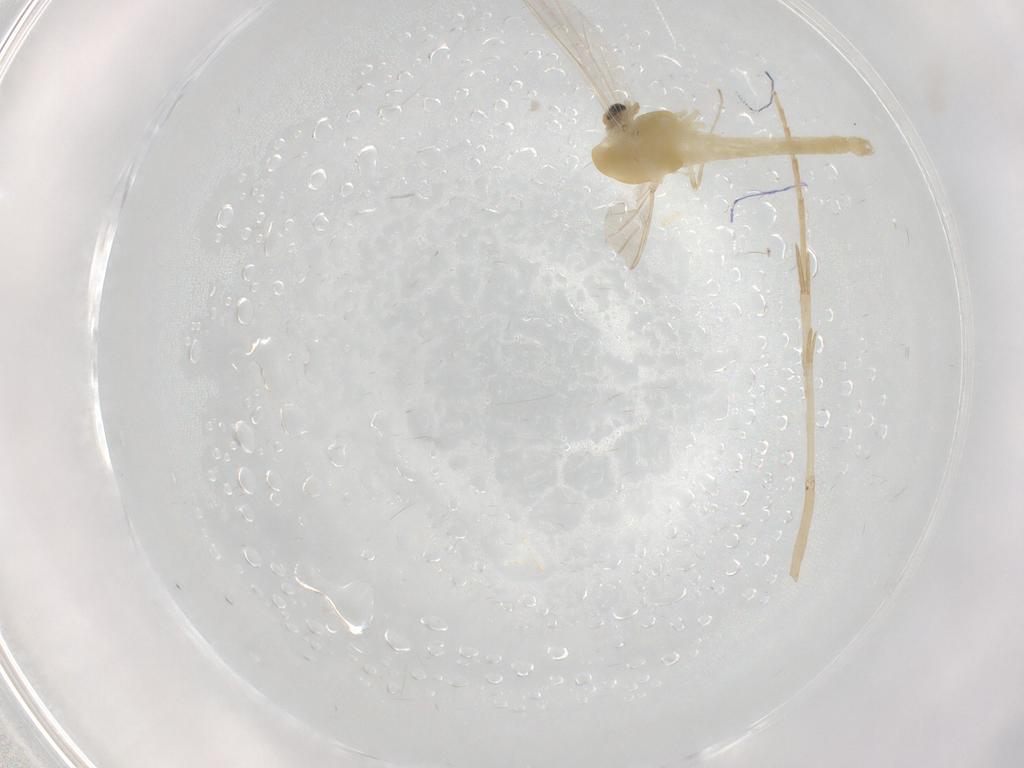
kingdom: Animalia
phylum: Arthropoda
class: Insecta
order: Diptera
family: Chironomidae
